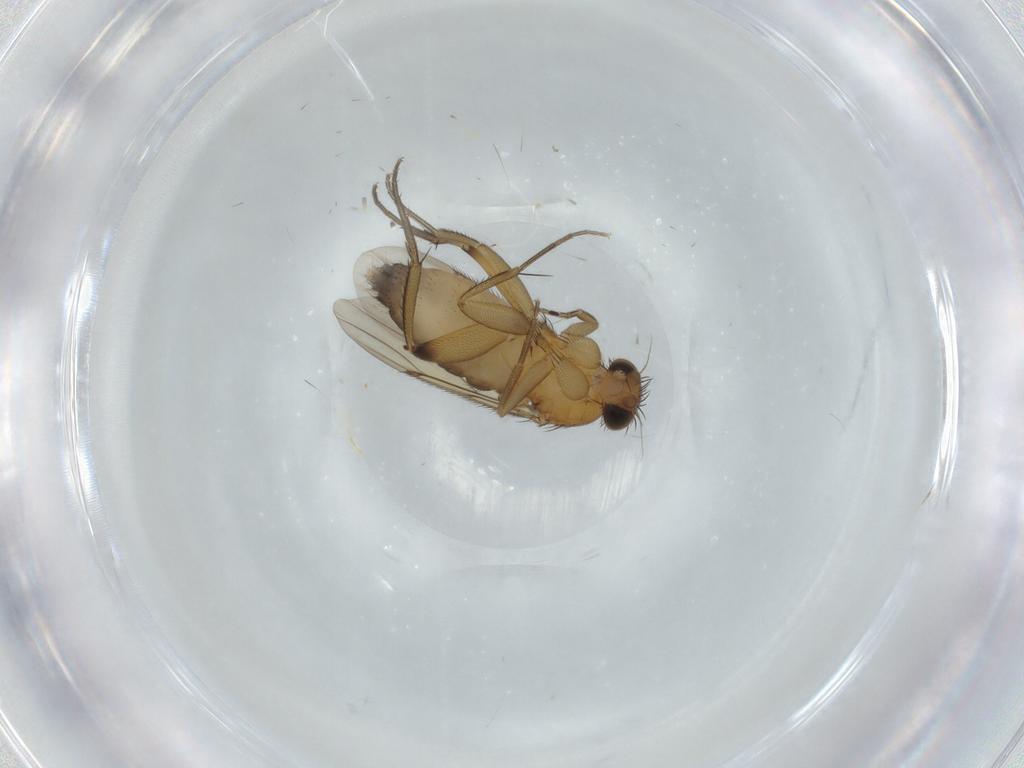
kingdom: Animalia
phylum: Arthropoda
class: Insecta
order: Diptera
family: Phoridae
